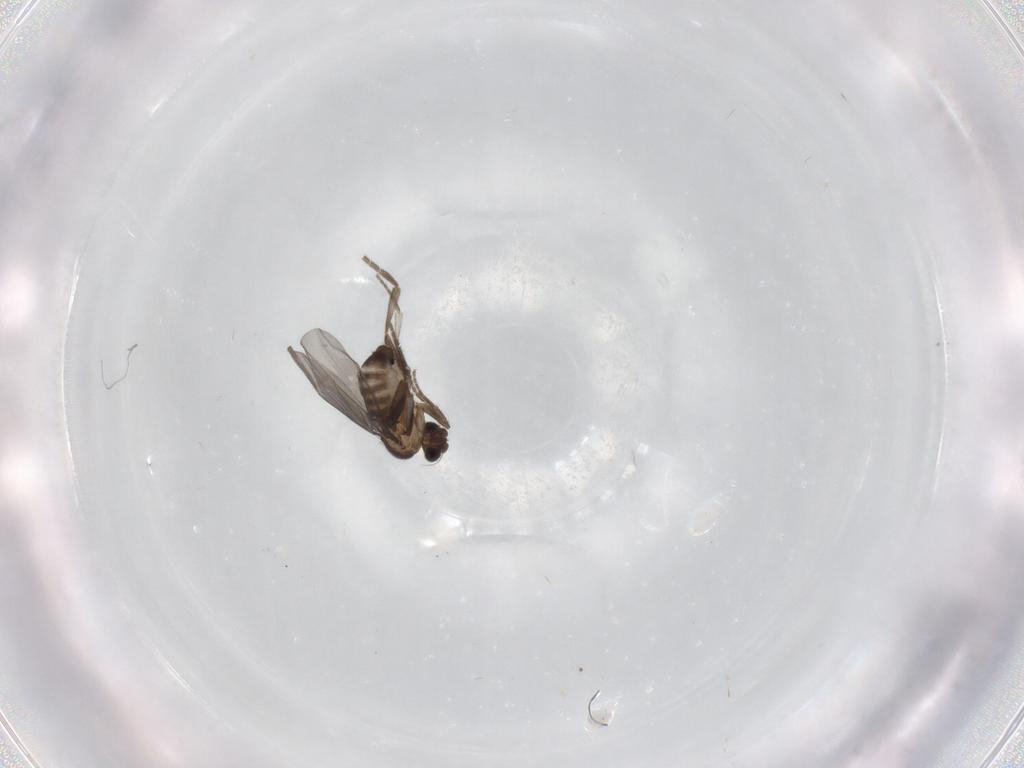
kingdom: Animalia
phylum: Arthropoda
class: Insecta
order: Diptera
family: Phoridae
